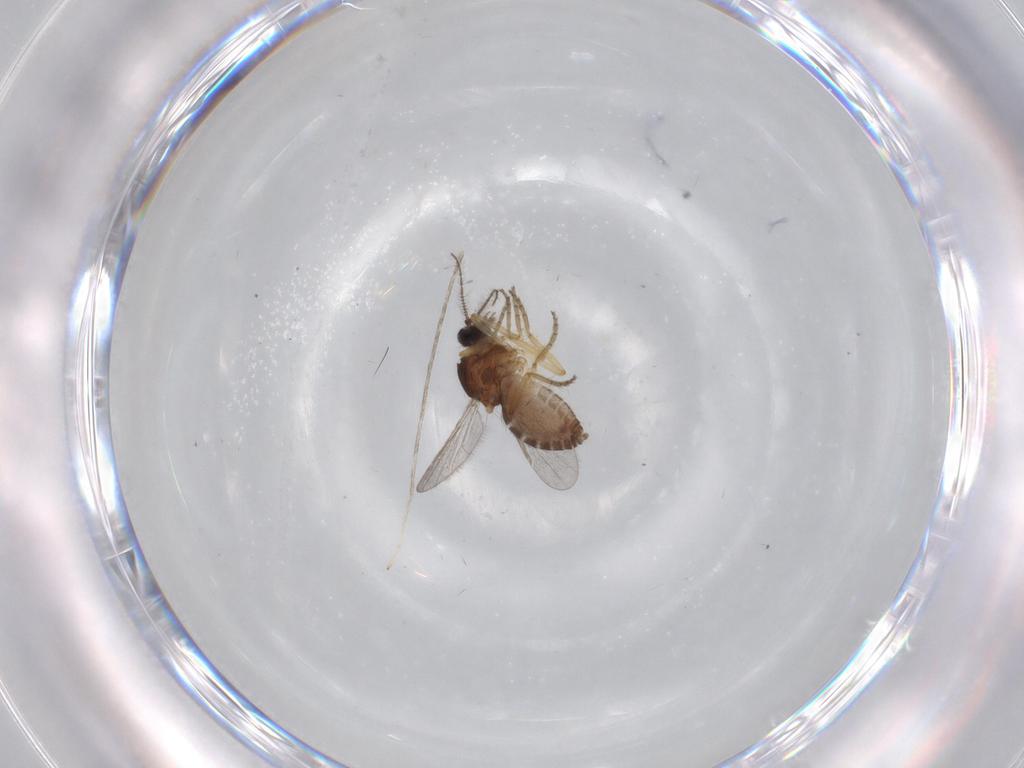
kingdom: Animalia
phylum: Arthropoda
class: Insecta
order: Diptera
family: Ceratopogonidae
